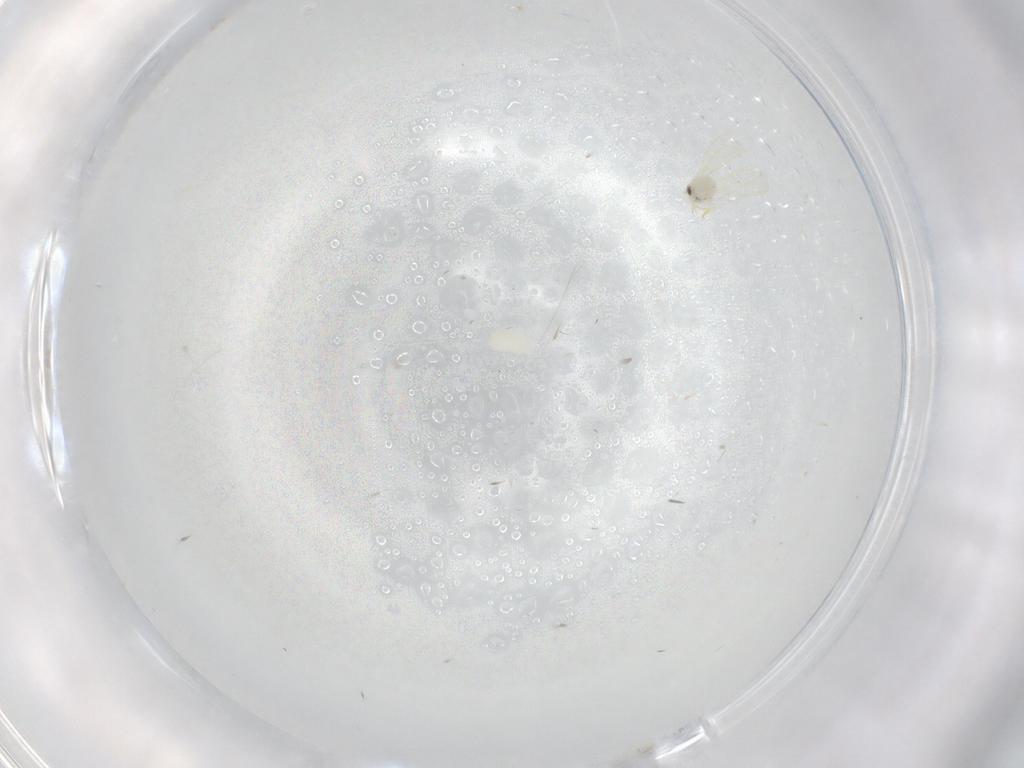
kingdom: Animalia
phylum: Arthropoda
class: Insecta
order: Hemiptera
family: Aleyrodidae
